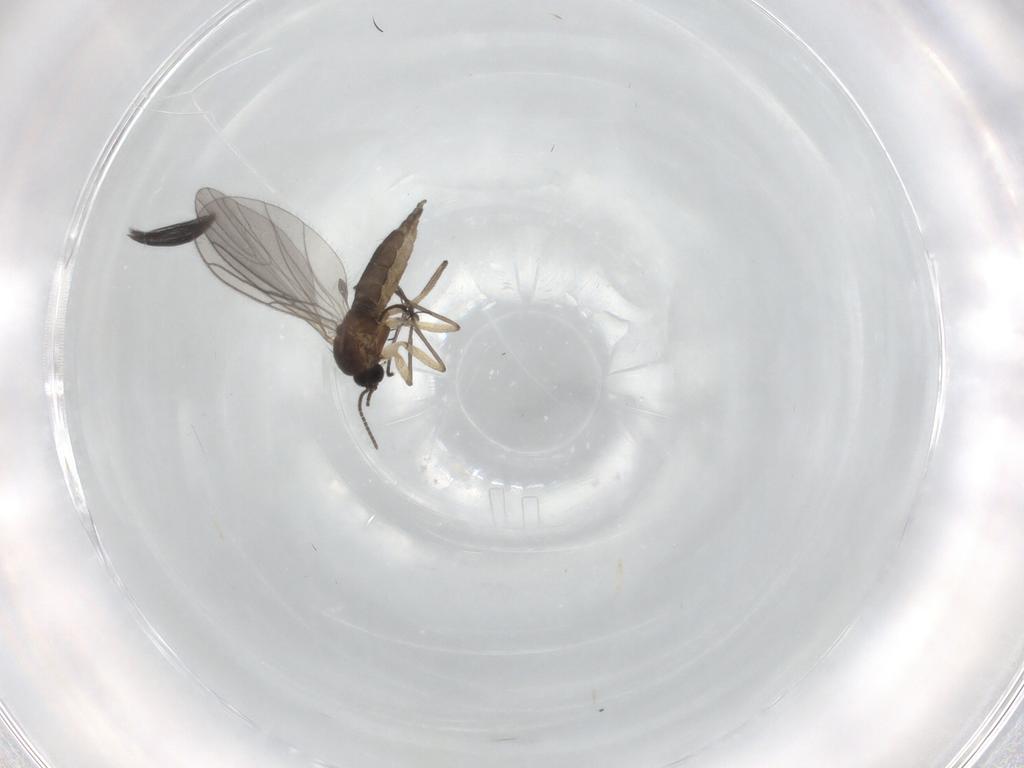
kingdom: Animalia
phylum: Arthropoda
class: Insecta
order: Diptera
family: Sciaridae
